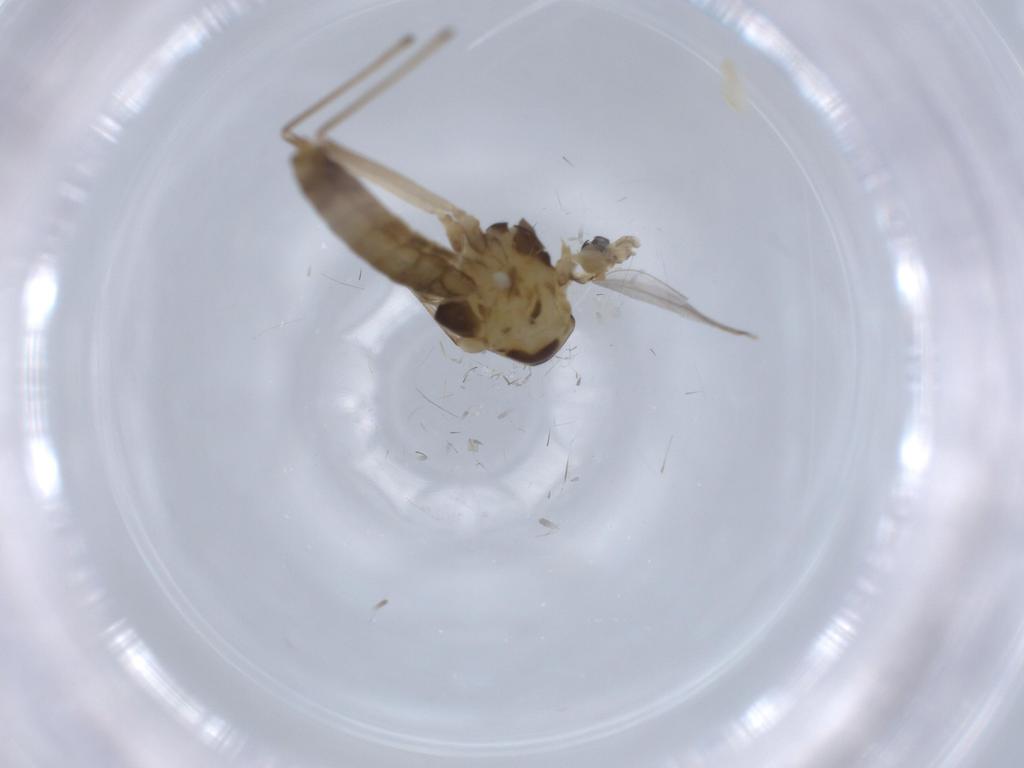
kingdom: Animalia
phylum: Arthropoda
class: Insecta
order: Diptera
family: Chironomidae
